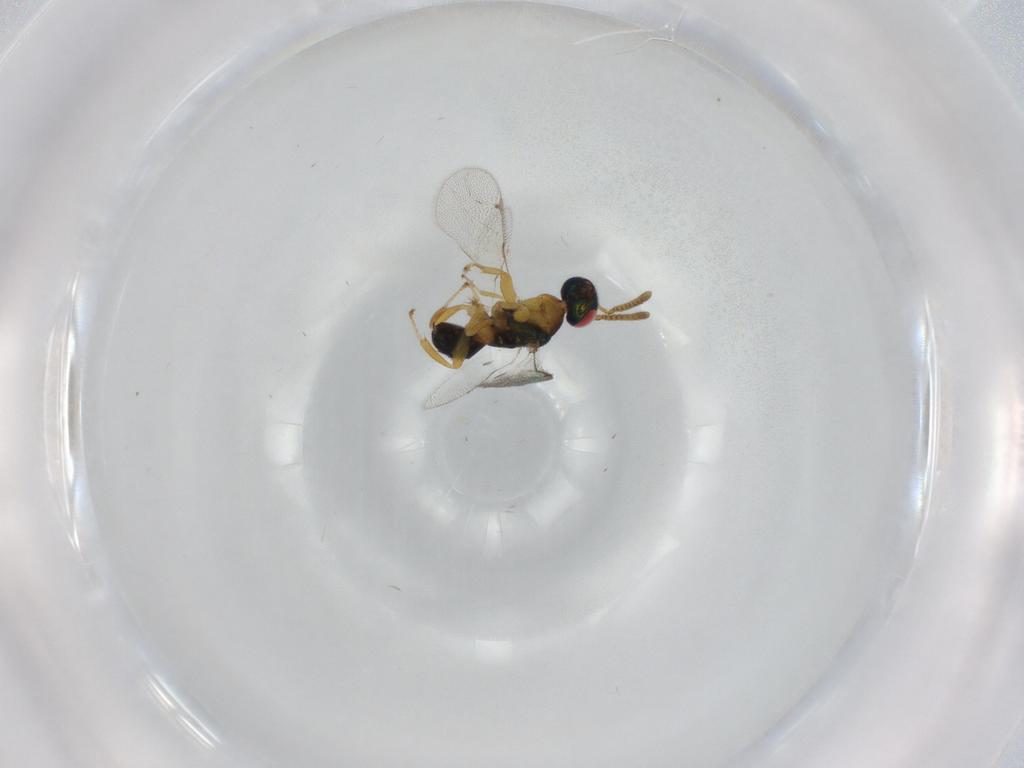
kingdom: Animalia
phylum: Arthropoda
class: Insecta
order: Hymenoptera
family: Torymidae
